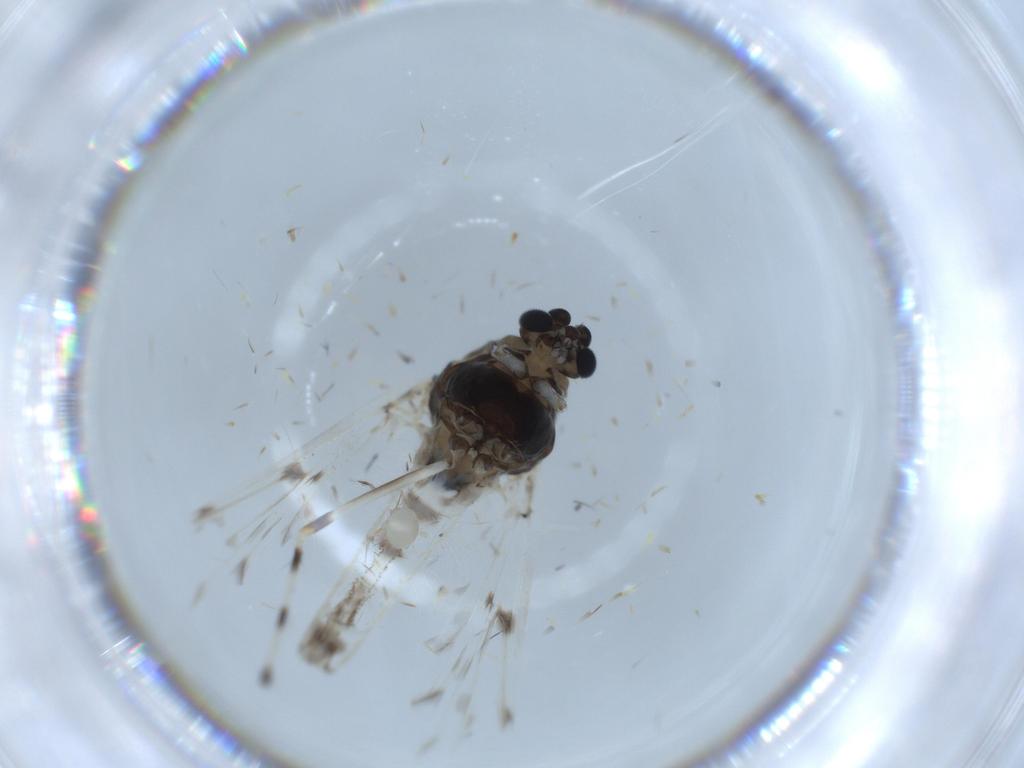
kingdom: Animalia
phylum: Arthropoda
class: Insecta
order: Diptera
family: Chironomidae
